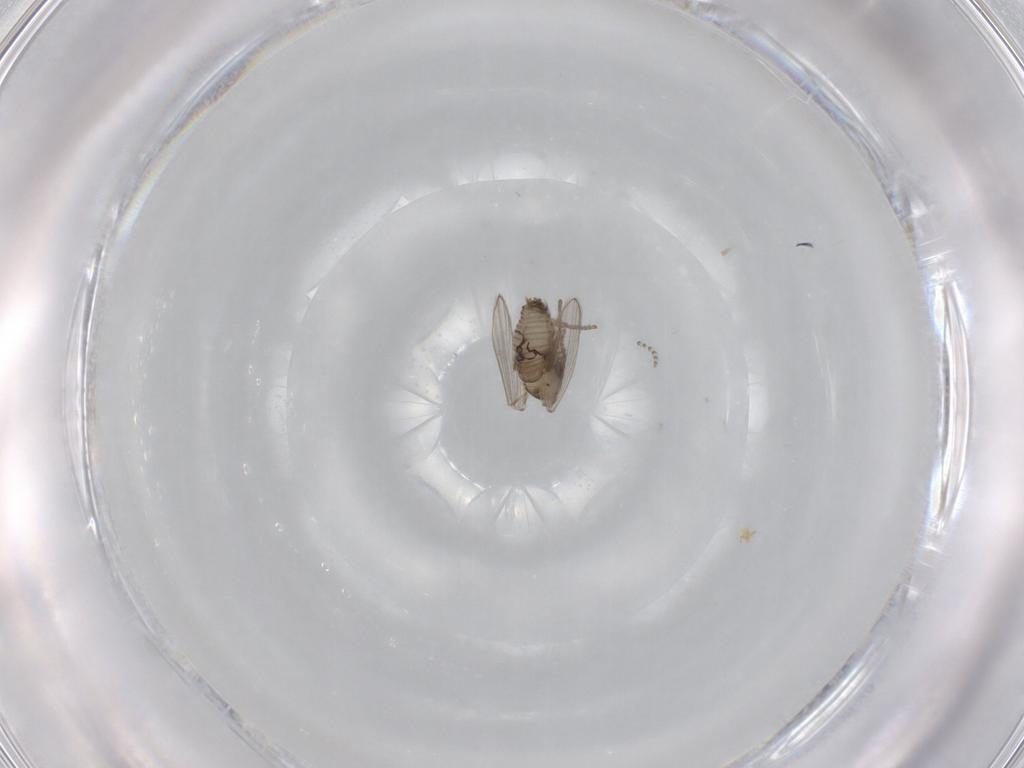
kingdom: Animalia
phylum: Arthropoda
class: Insecta
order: Diptera
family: Psychodidae
